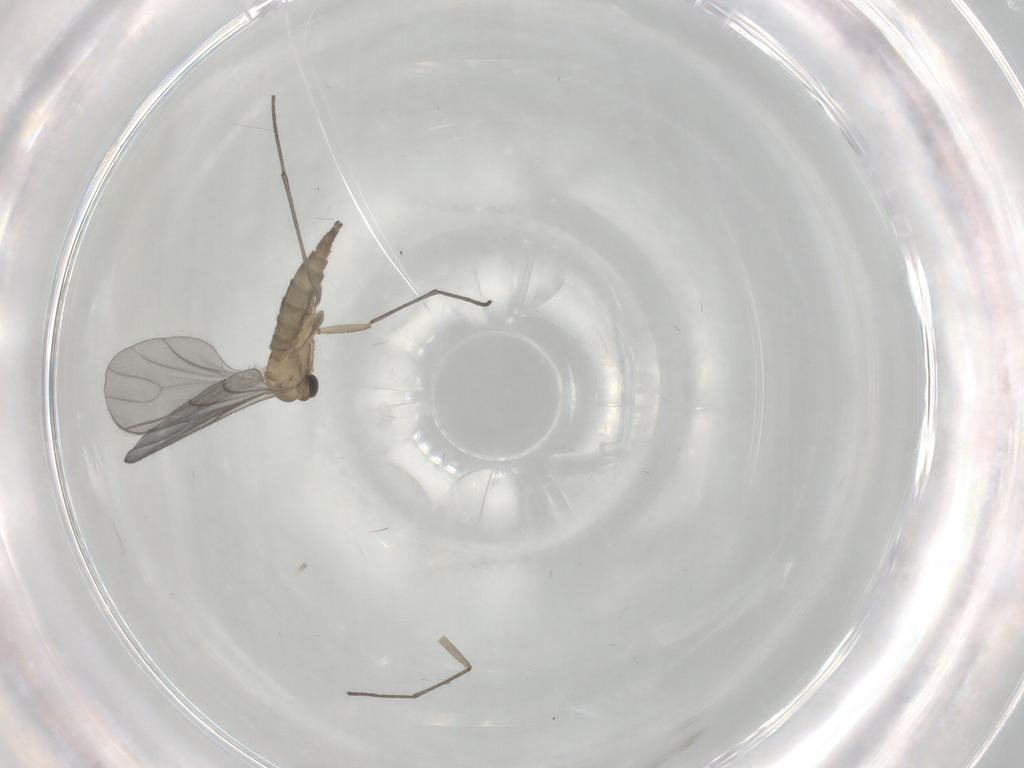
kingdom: Animalia
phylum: Arthropoda
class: Insecta
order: Diptera
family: Sciaridae
